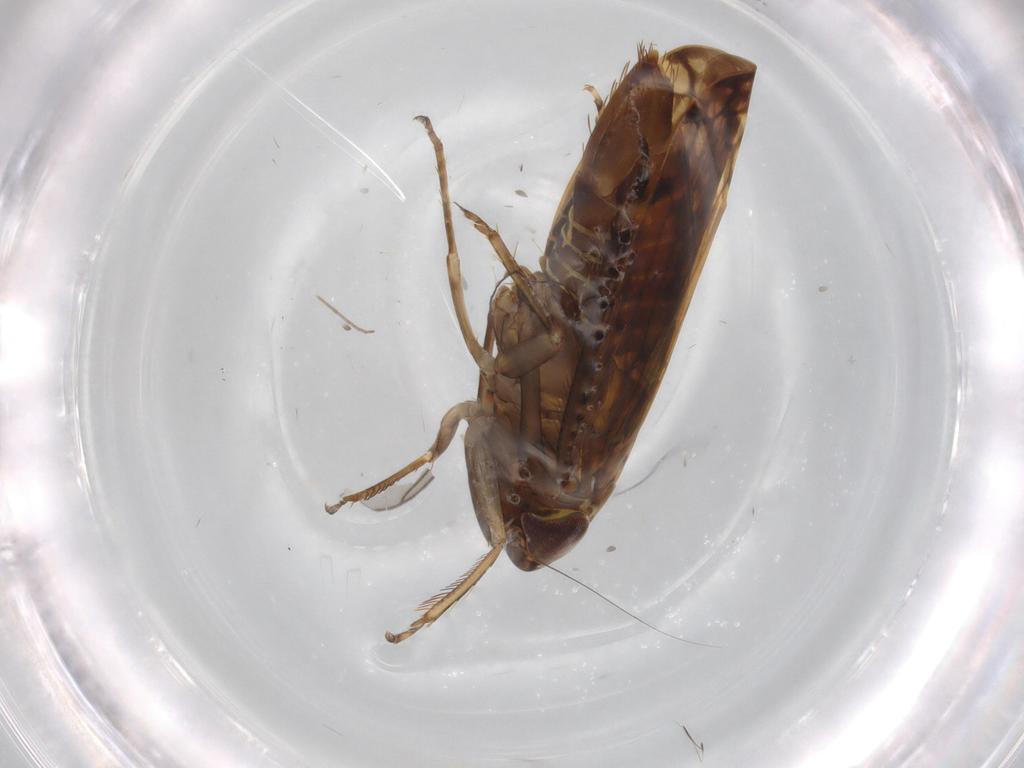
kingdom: Animalia
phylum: Arthropoda
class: Insecta
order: Hemiptera
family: Cicadellidae
